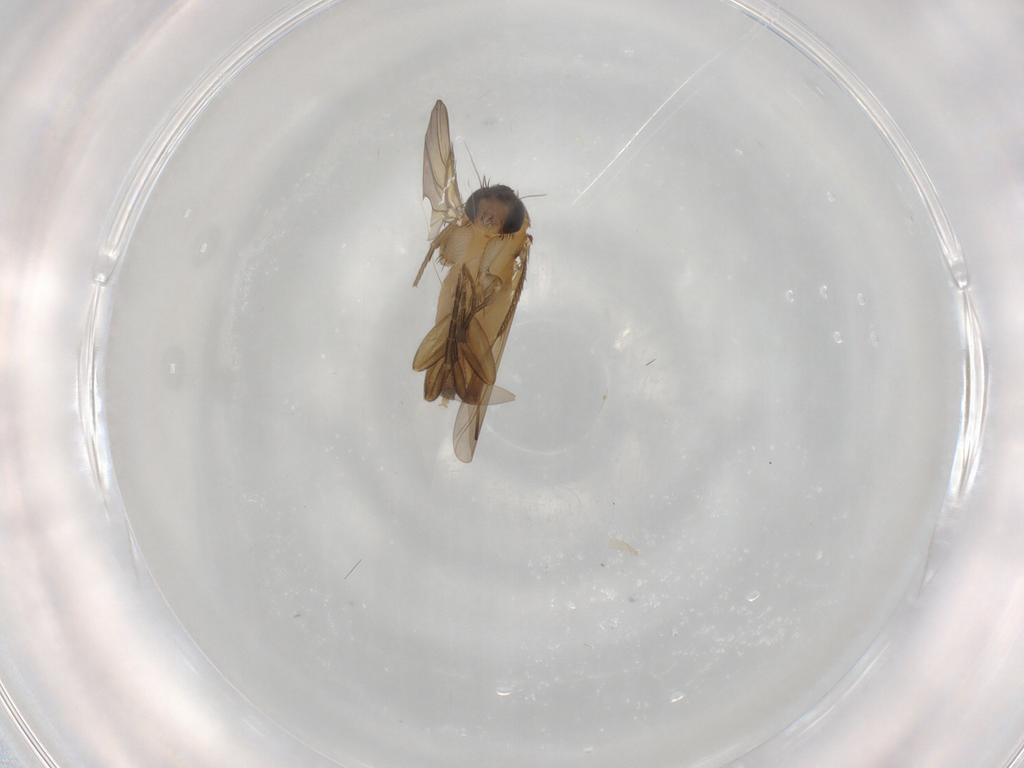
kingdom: Animalia
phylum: Arthropoda
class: Insecta
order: Diptera
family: Phoridae
